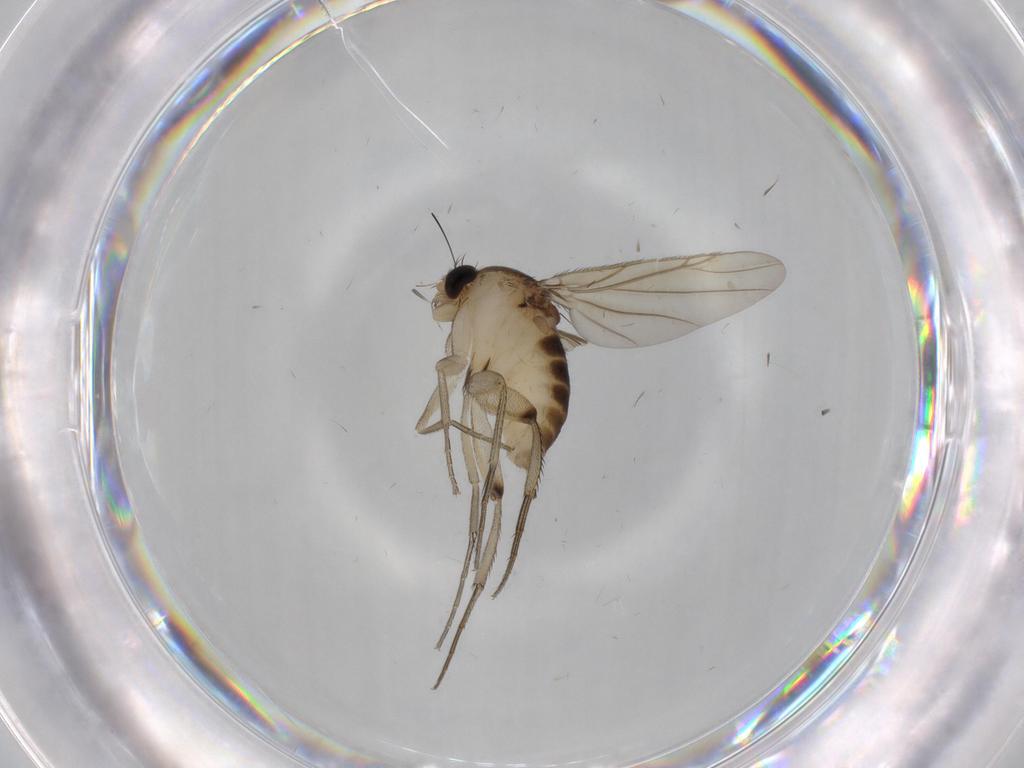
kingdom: Animalia
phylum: Arthropoda
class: Insecta
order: Diptera
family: Phoridae
